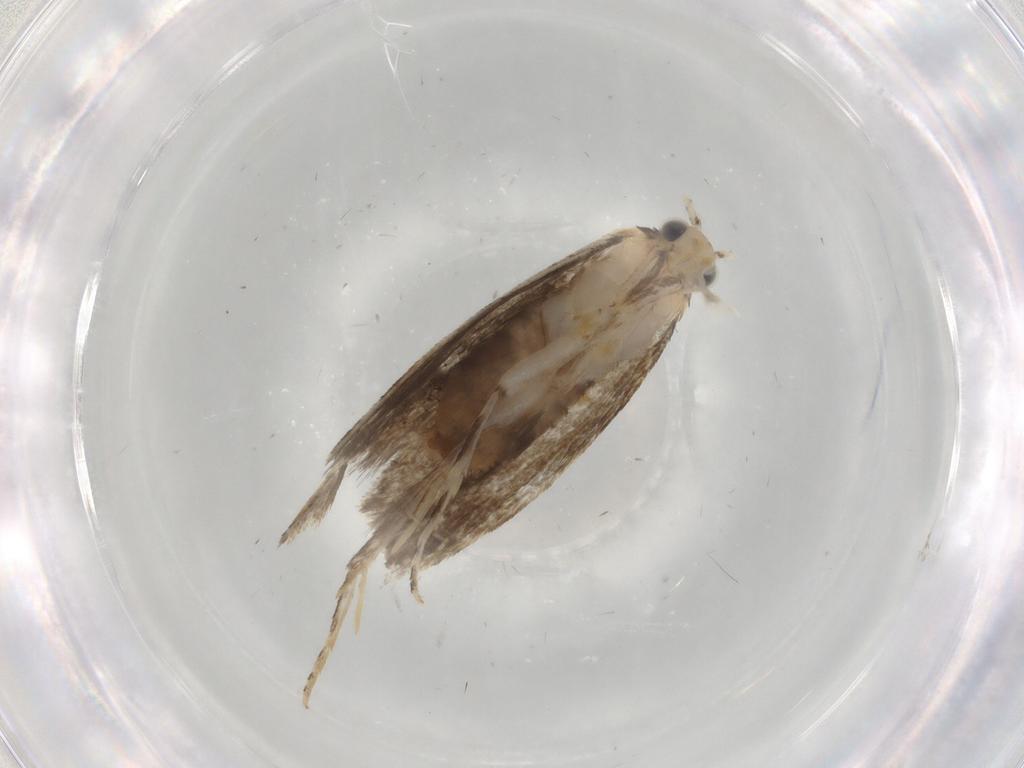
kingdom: Animalia
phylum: Arthropoda
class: Insecta
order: Lepidoptera
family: Tineidae
